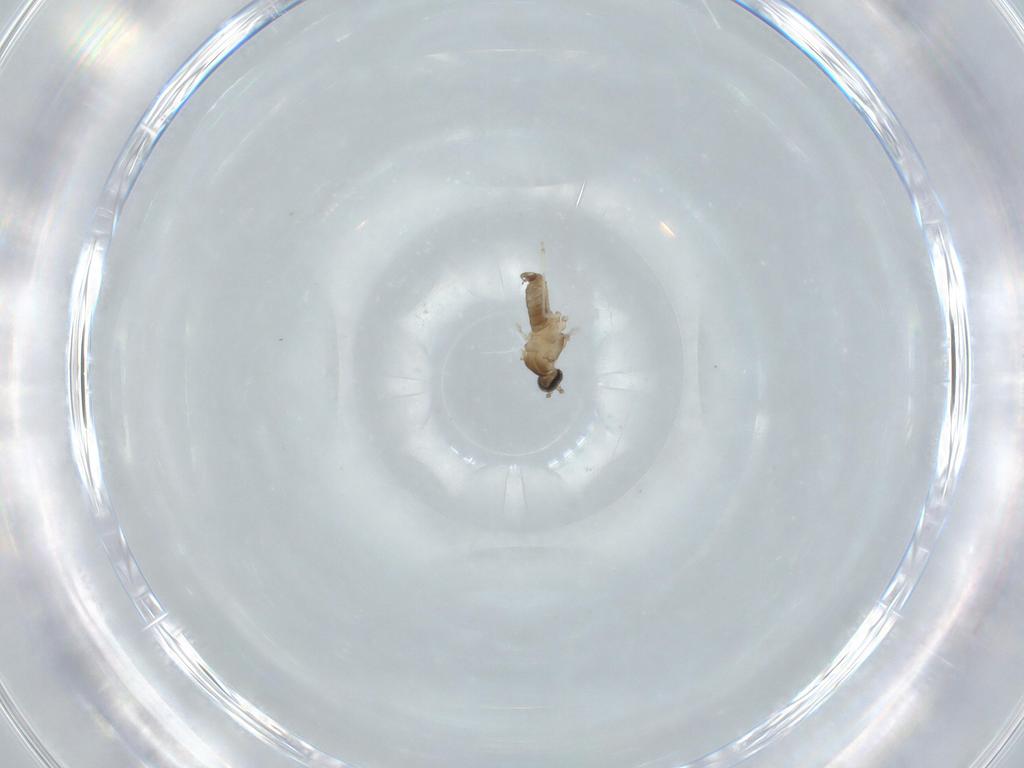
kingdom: Animalia
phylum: Arthropoda
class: Insecta
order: Diptera
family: Cecidomyiidae
